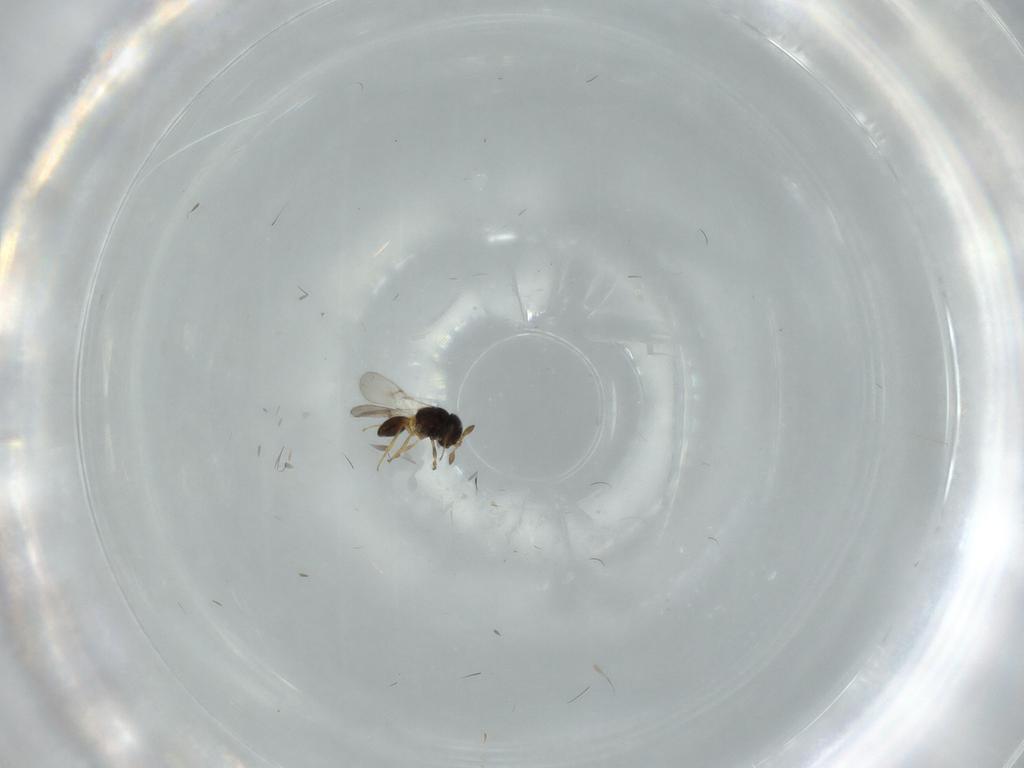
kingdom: Animalia
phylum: Arthropoda
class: Insecta
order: Hymenoptera
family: Scelionidae
